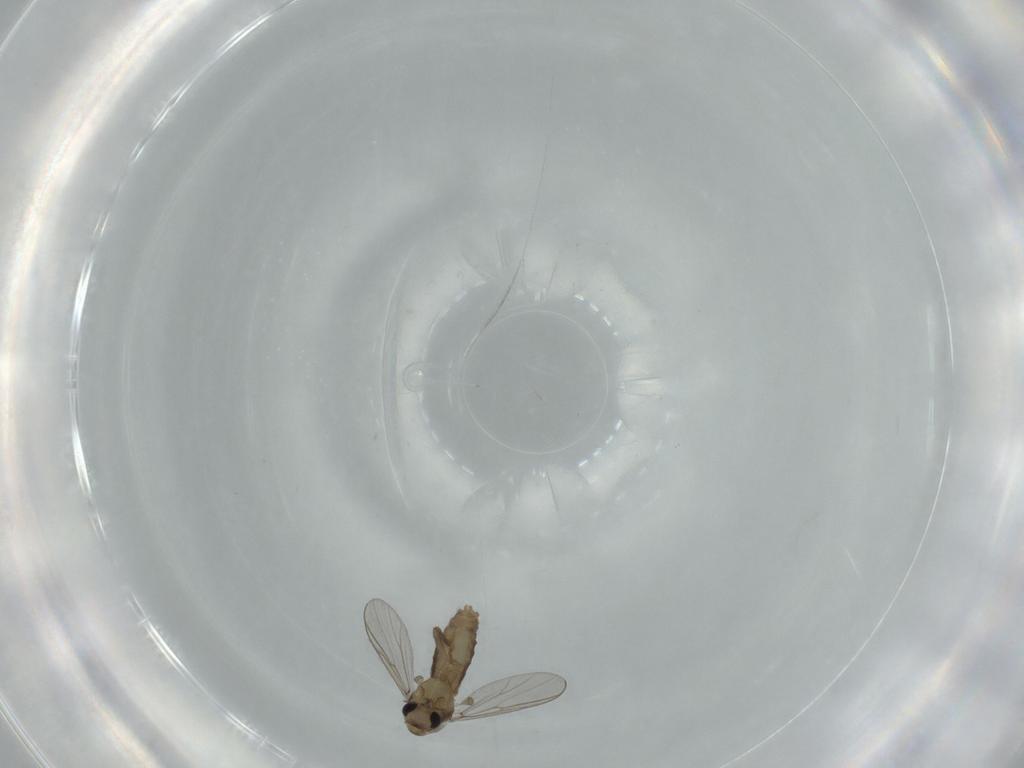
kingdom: Animalia
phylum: Arthropoda
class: Insecta
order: Diptera
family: Chironomidae
